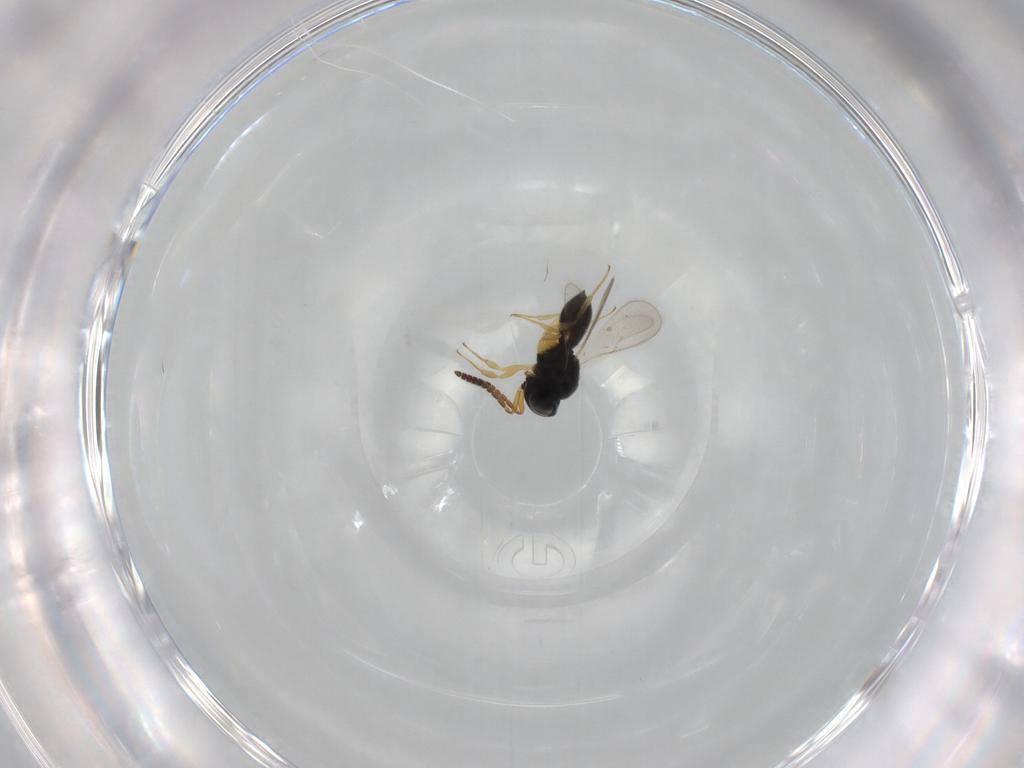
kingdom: Animalia
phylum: Arthropoda
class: Insecta
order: Hymenoptera
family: Scelionidae
